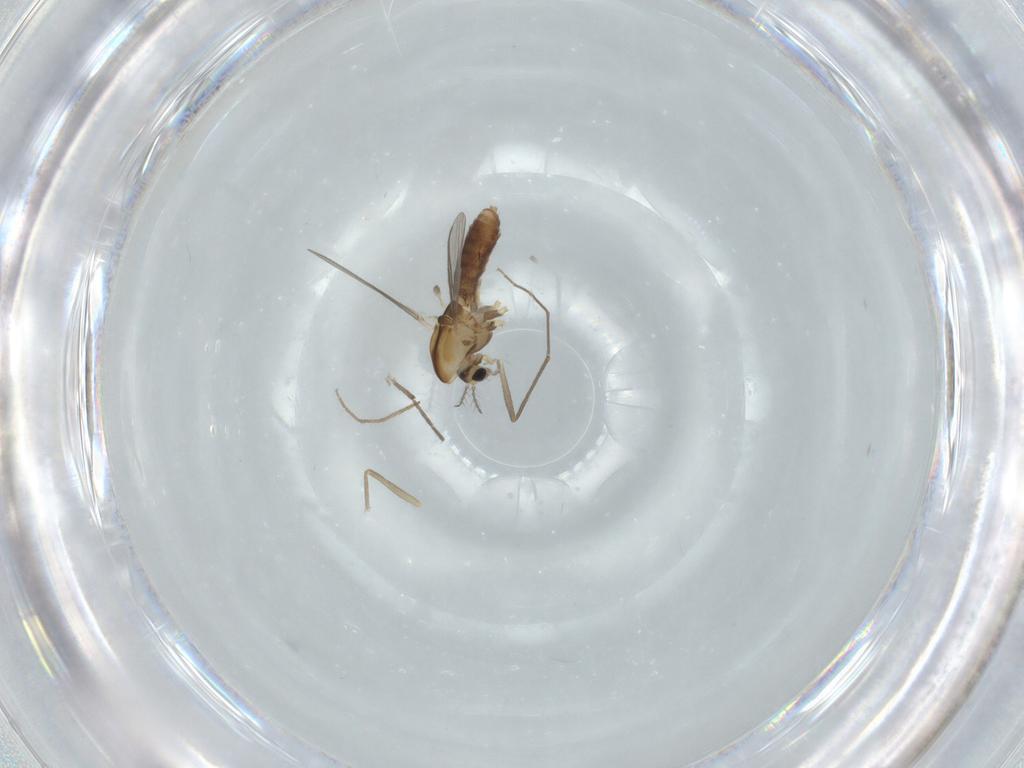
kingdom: Animalia
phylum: Arthropoda
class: Insecta
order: Diptera
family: Chironomidae
